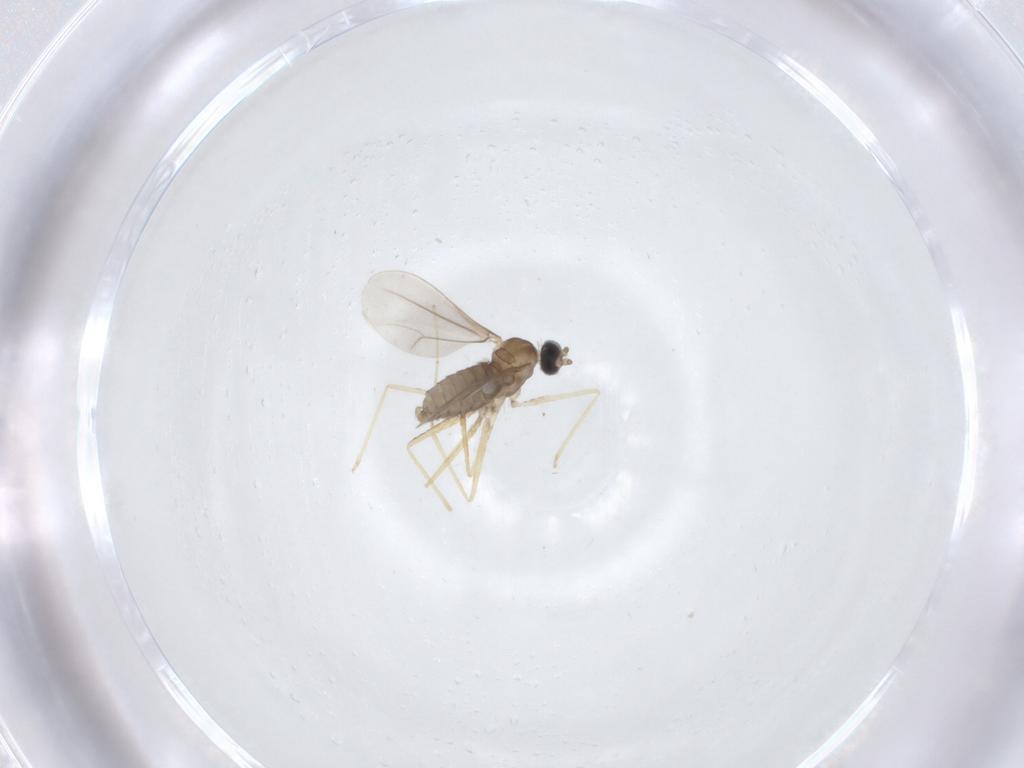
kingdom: Animalia
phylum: Arthropoda
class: Insecta
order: Diptera
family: Cecidomyiidae
